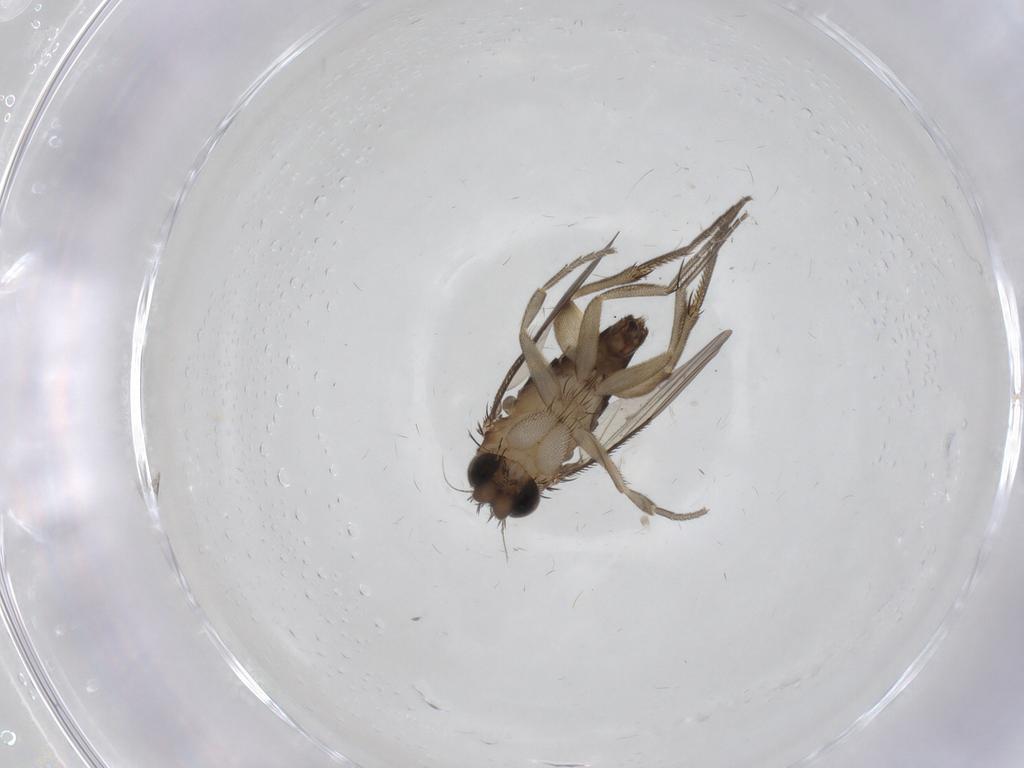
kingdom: Animalia
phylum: Arthropoda
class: Insecta
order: Diptera
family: Phoridae
